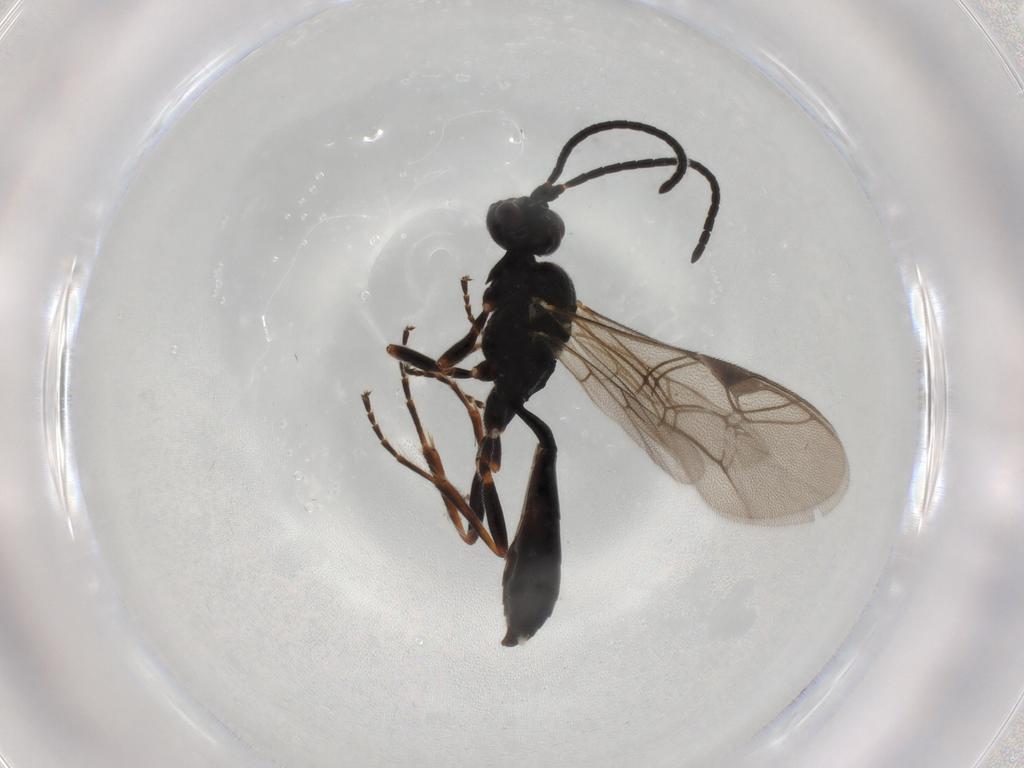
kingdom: Animalia
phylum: Arthropoda
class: Insecta
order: Hymenoptera
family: Ichneumonidae
